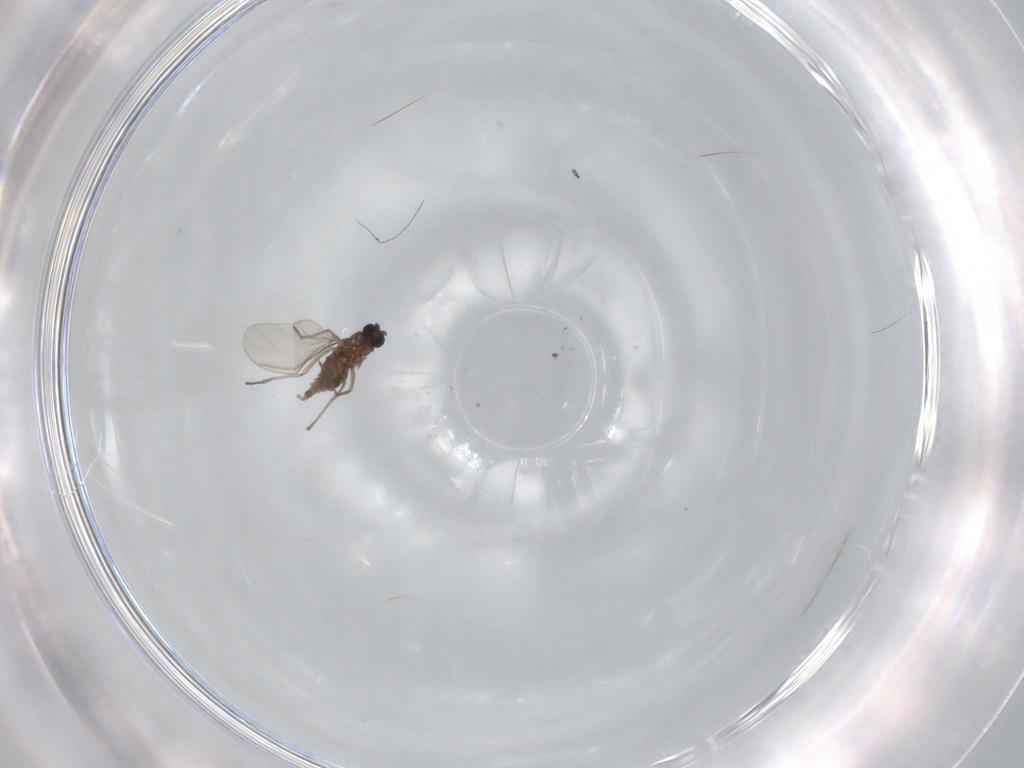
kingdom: Animalia
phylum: Arthropoda
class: Insecta
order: Diptera
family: Sciaridae
